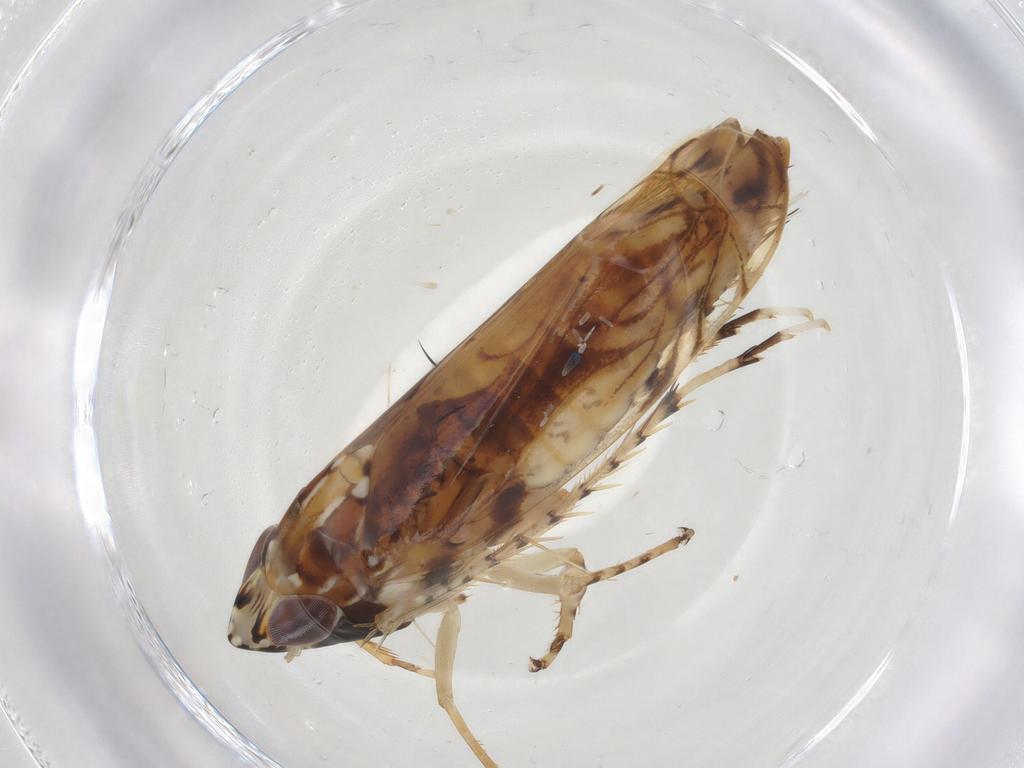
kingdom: Animalia
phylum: Arthropoda
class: Insecta
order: Hemiptera
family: Cicadellidae
